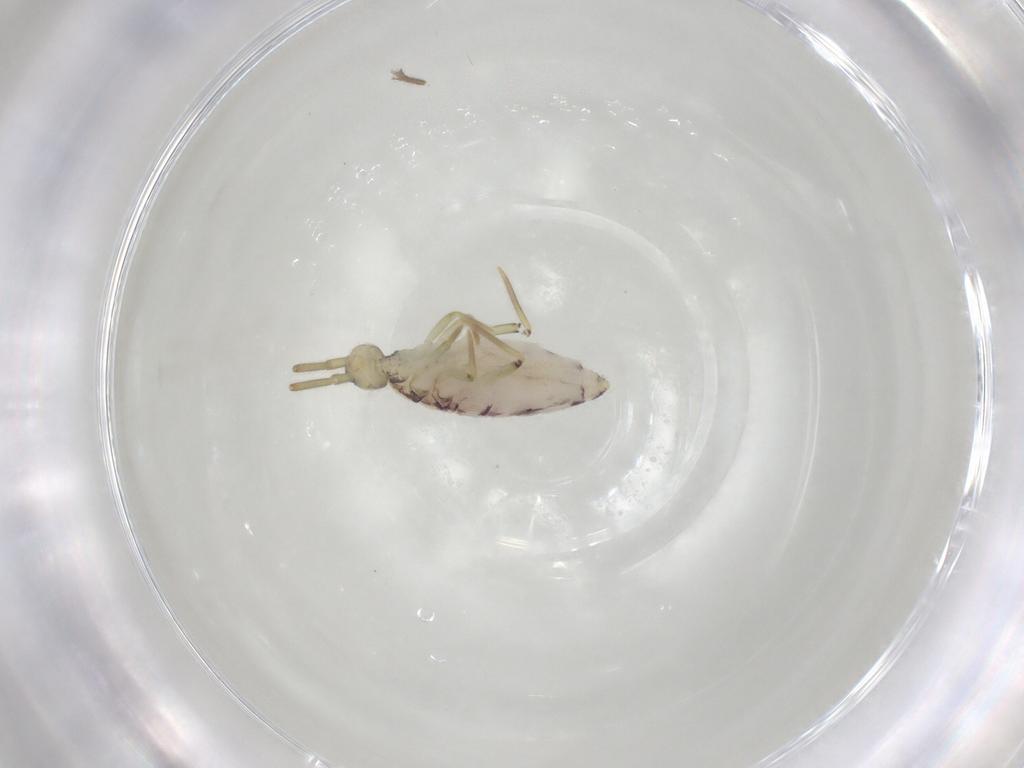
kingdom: Animalia
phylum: Arthropoda
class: Collembola
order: Entomobryomorpha
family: Entomobryidae
